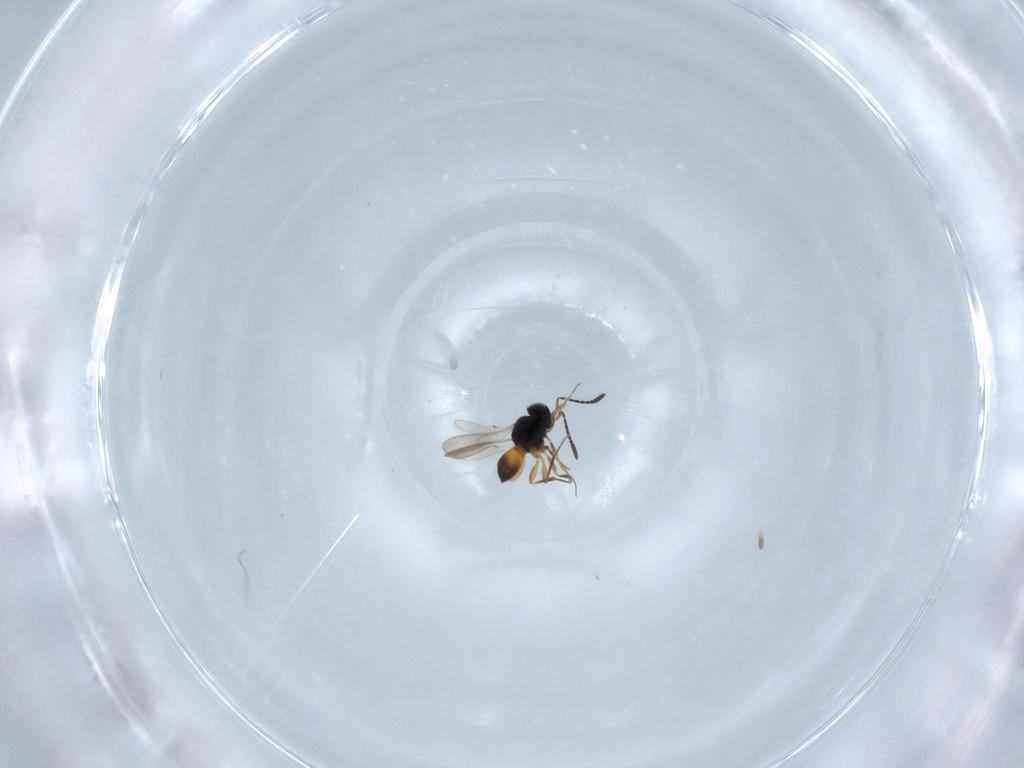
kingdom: Animalia
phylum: Arthropoda
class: Insecta
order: Hymenoptera
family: Scelionidae
